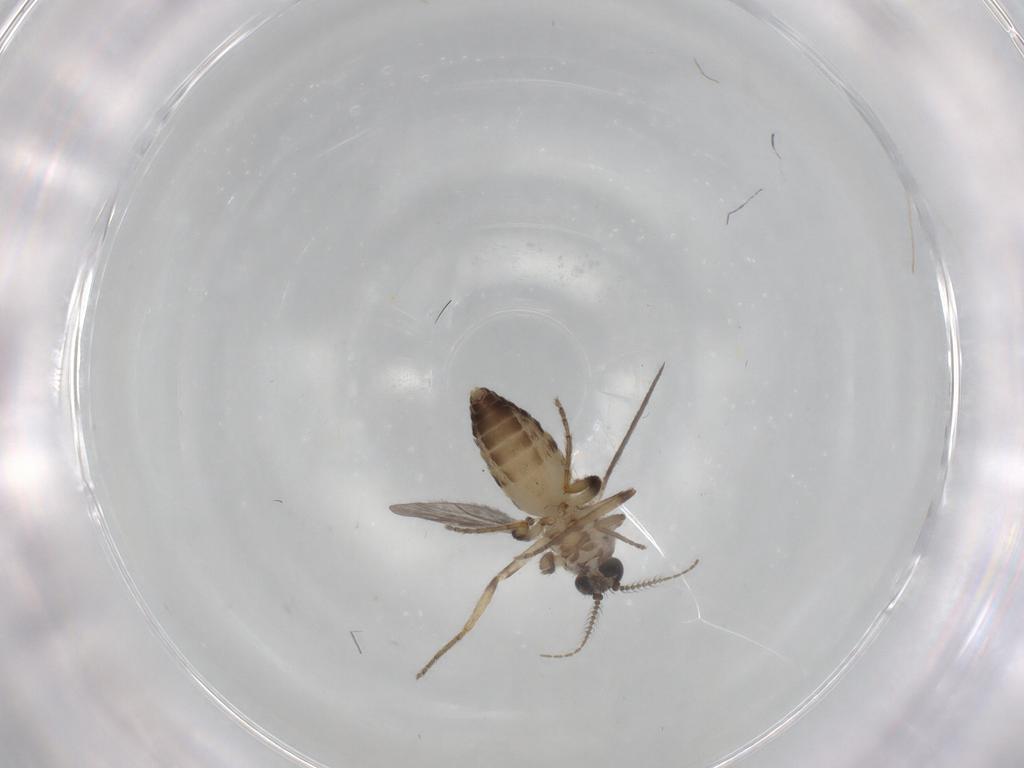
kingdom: Animalia
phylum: Arthropoda
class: Insecta
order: Diptera
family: Ceratopogonidae
